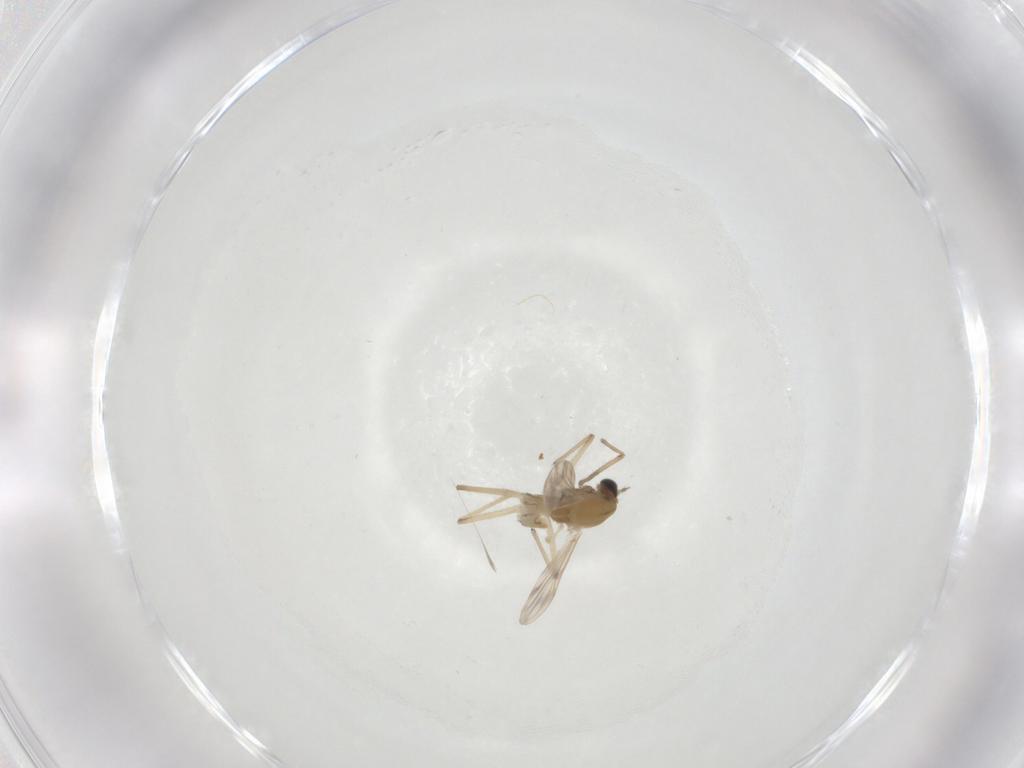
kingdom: Animalia
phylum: Arthropoda
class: Insecta
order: Diptera
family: Chironomidae
